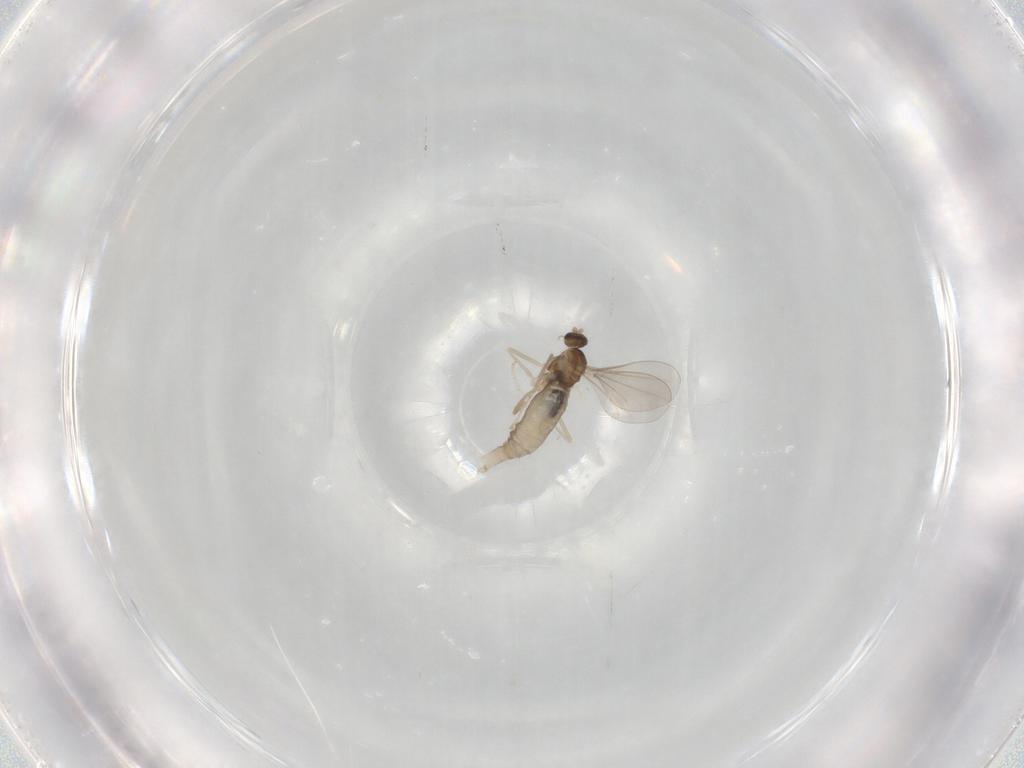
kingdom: Animalia
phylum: Arthropoda
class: Insecta
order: Diptera
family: Cecidomyiidae
